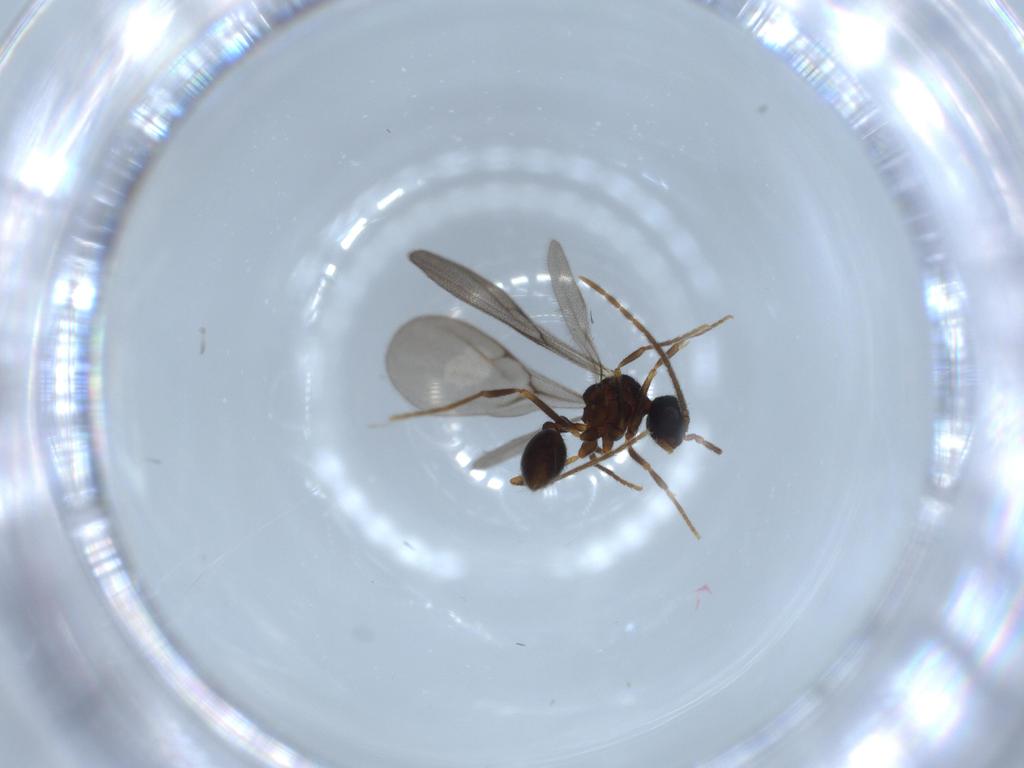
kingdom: Animalia
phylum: Arthropoda
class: Insecta
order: Hymenoptera
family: Formicidae
